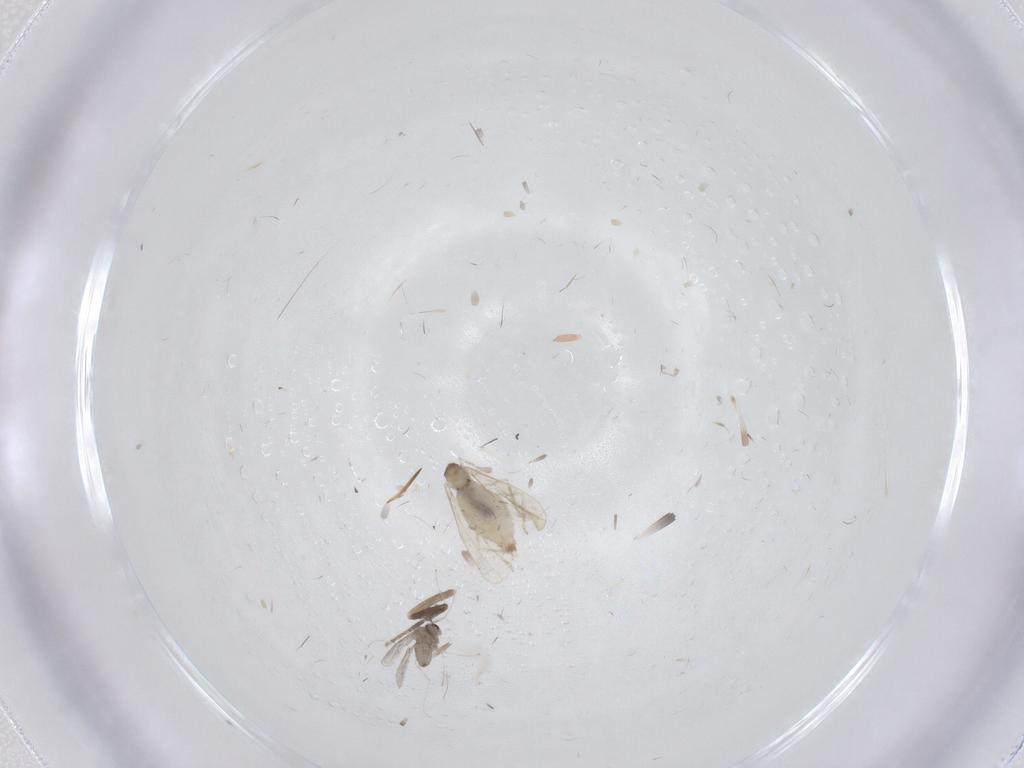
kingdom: Animalia
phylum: Arthropoda
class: Insecta
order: Diptera
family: Cecidomyiidae
